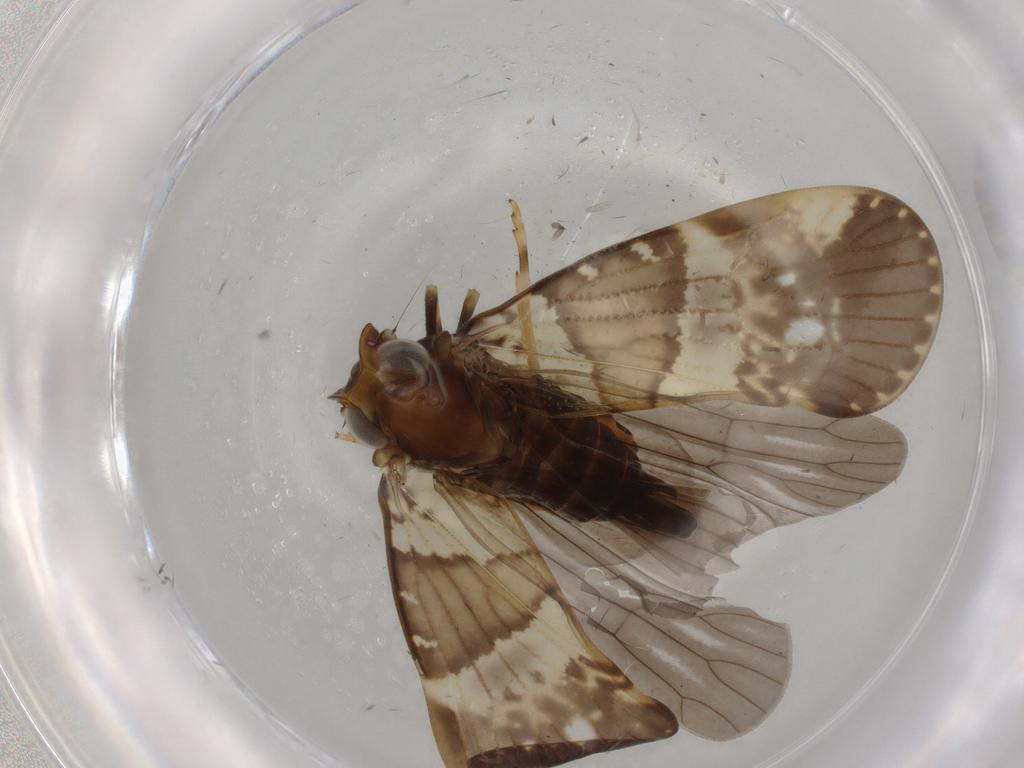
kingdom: Animalia
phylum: Arthropoda
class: Insecta
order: Hemiptera
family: Cixiidae
